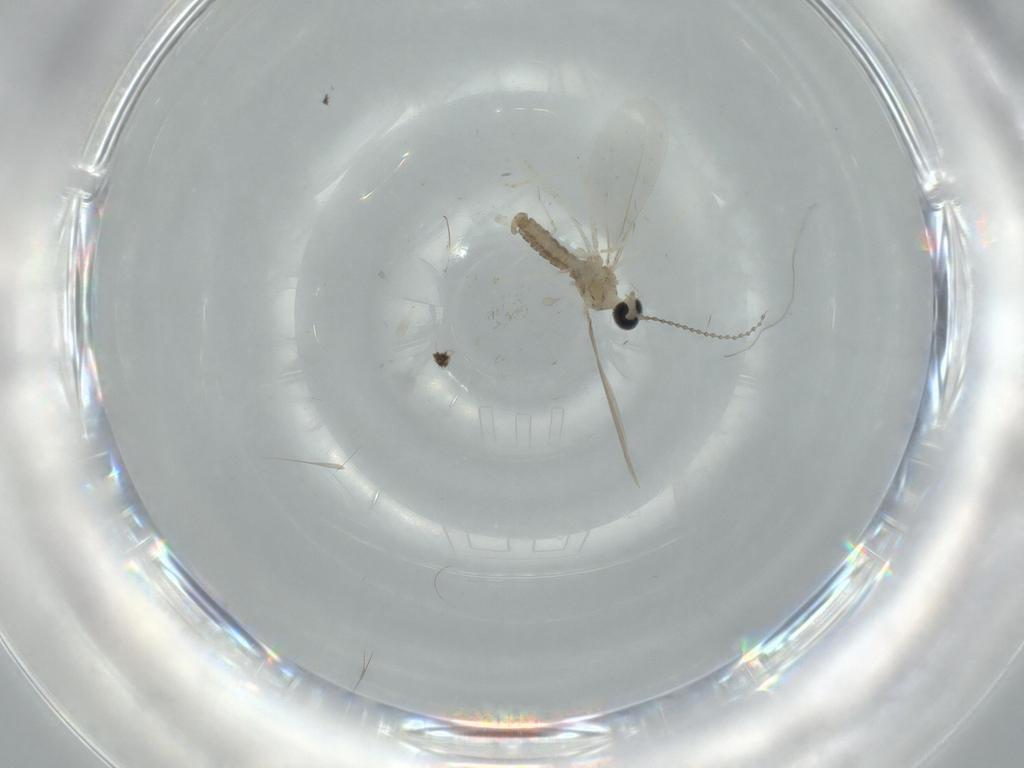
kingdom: Animalia
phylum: Arthropoda
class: Insecta
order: Diptera
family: Cecidomyiidae
